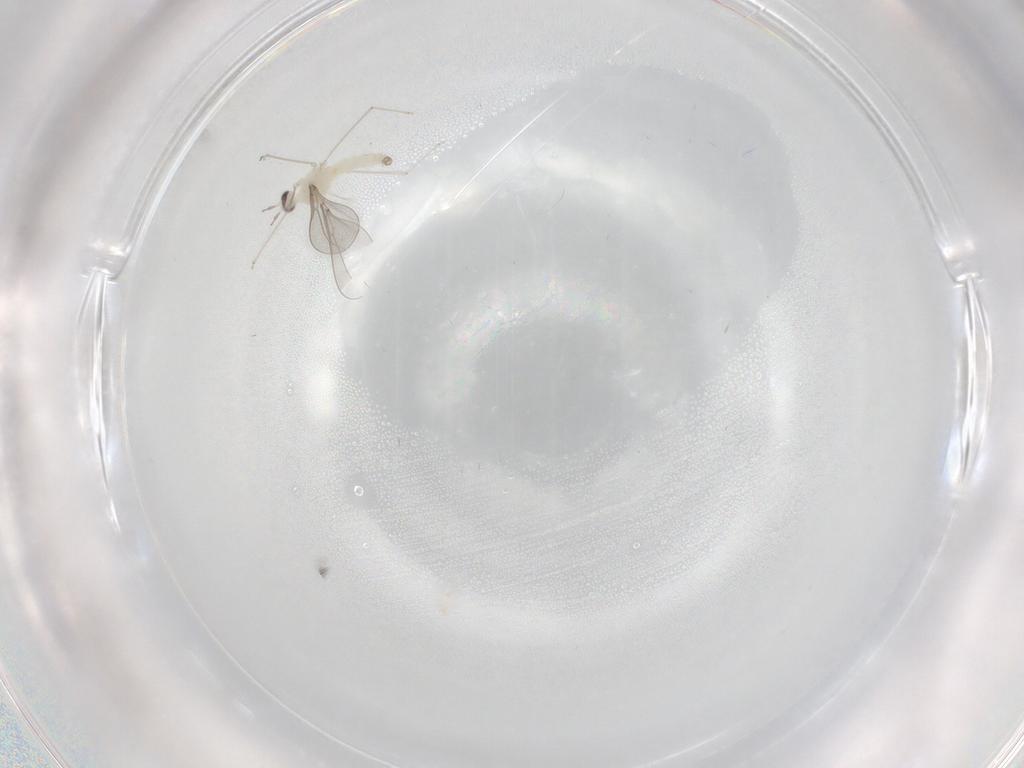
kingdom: Animalia
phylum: Arthropoda
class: Insecta
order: Diptera
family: Cecidomyiidae
